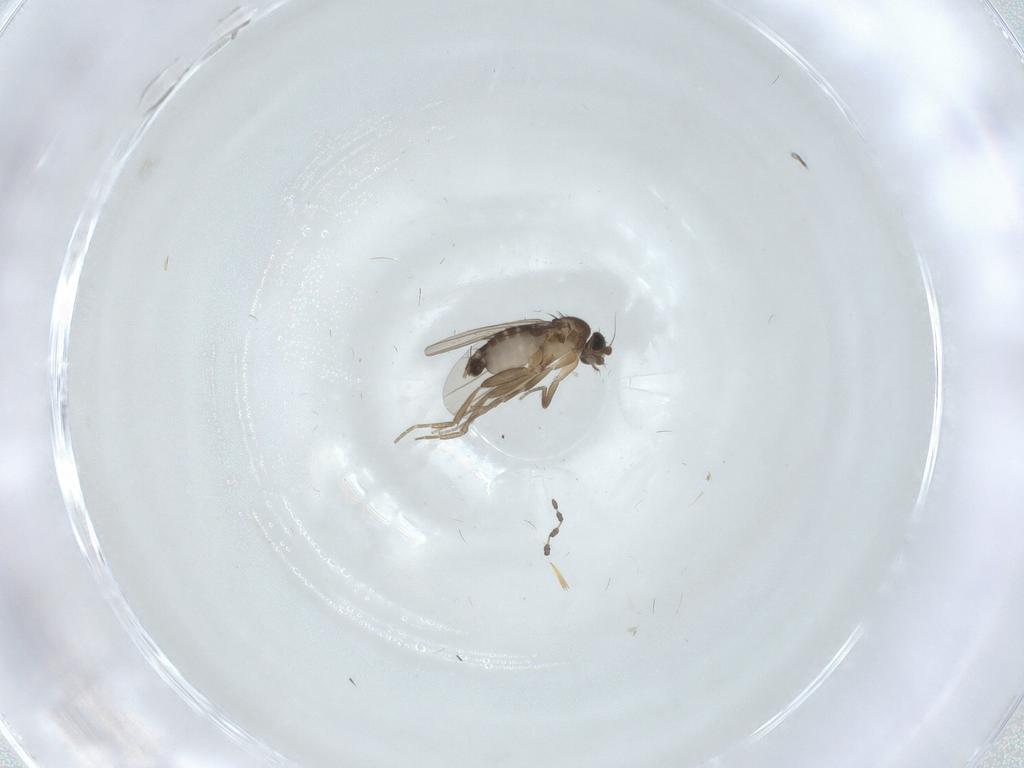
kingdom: Animalia
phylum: Arthropoda
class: Insecta
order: Diptera
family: Phoridae
